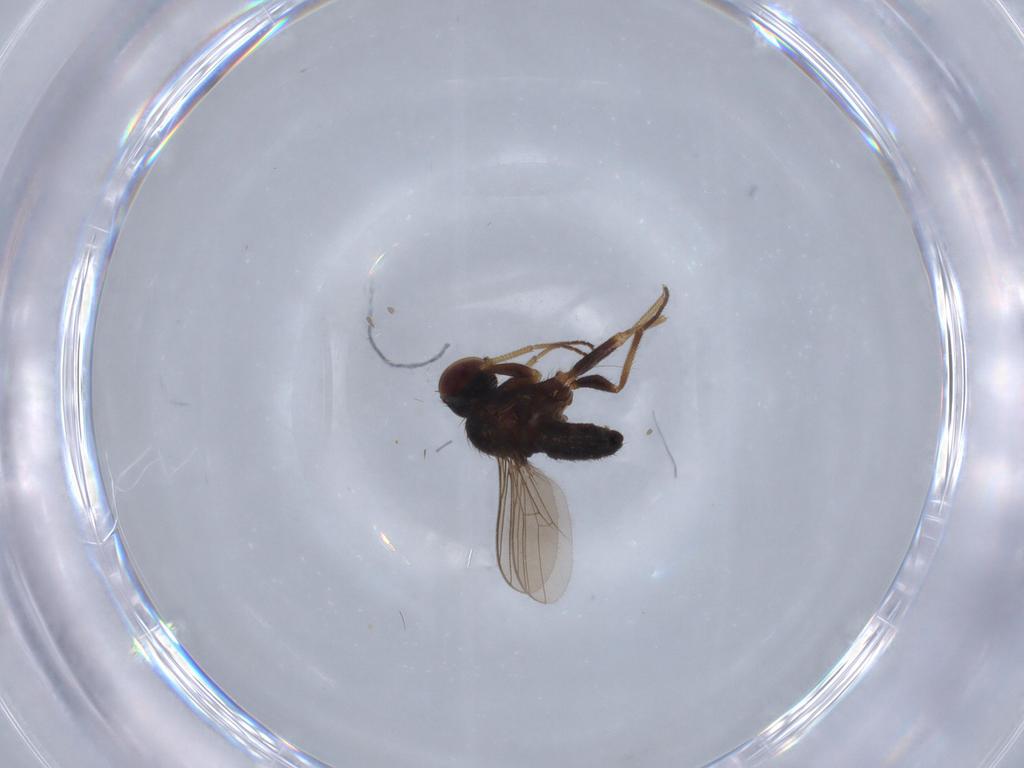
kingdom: Animalia
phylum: Arthropoda
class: Insecta
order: Diptera
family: Dolichopodidae
